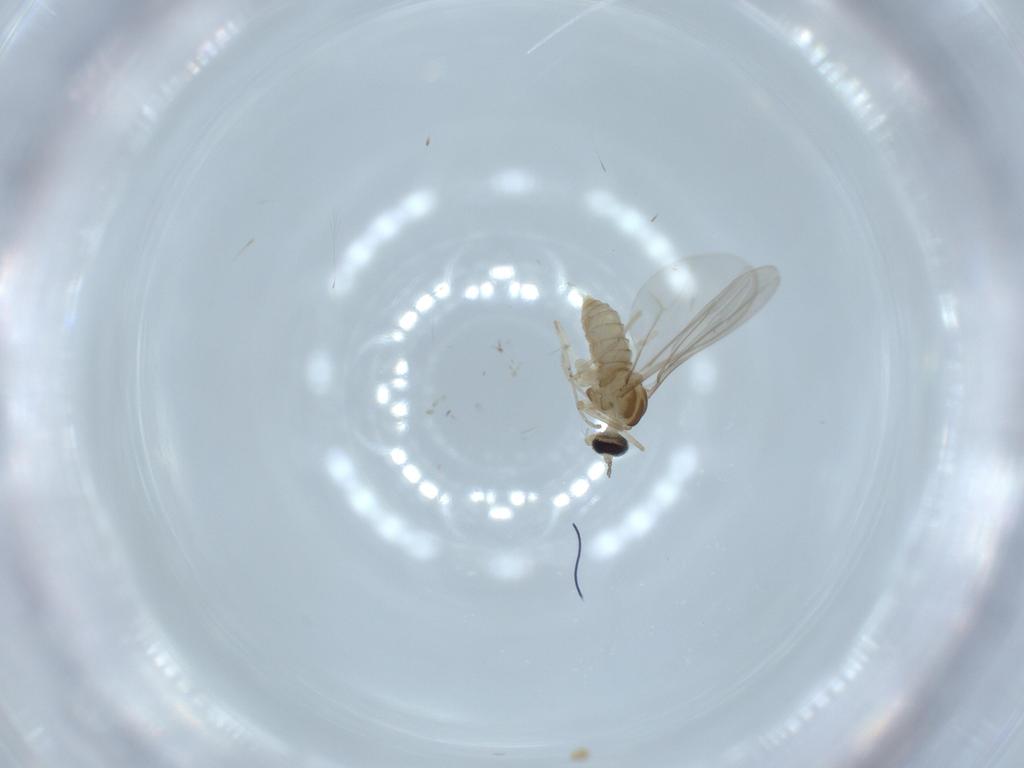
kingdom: Animalia
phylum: Arthropoda
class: Insecta
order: Diptera
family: Cecidomyiidae
